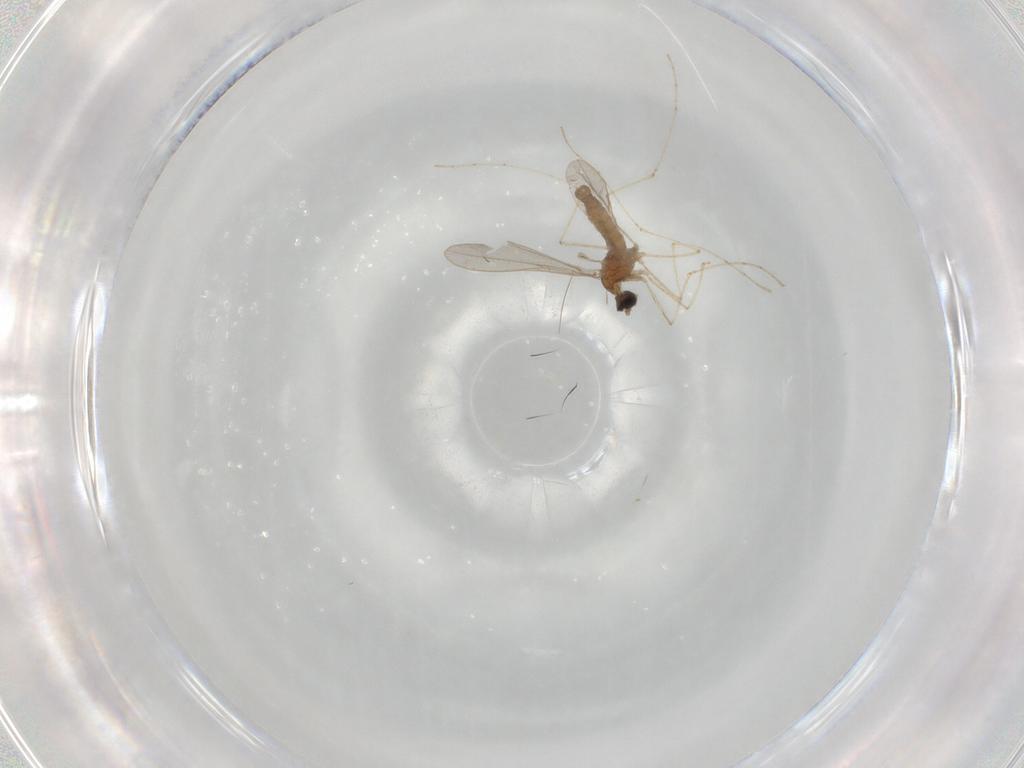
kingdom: Animalia
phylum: Arthropoda
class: Insecta
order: Diptera
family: Cecidomyiidae
